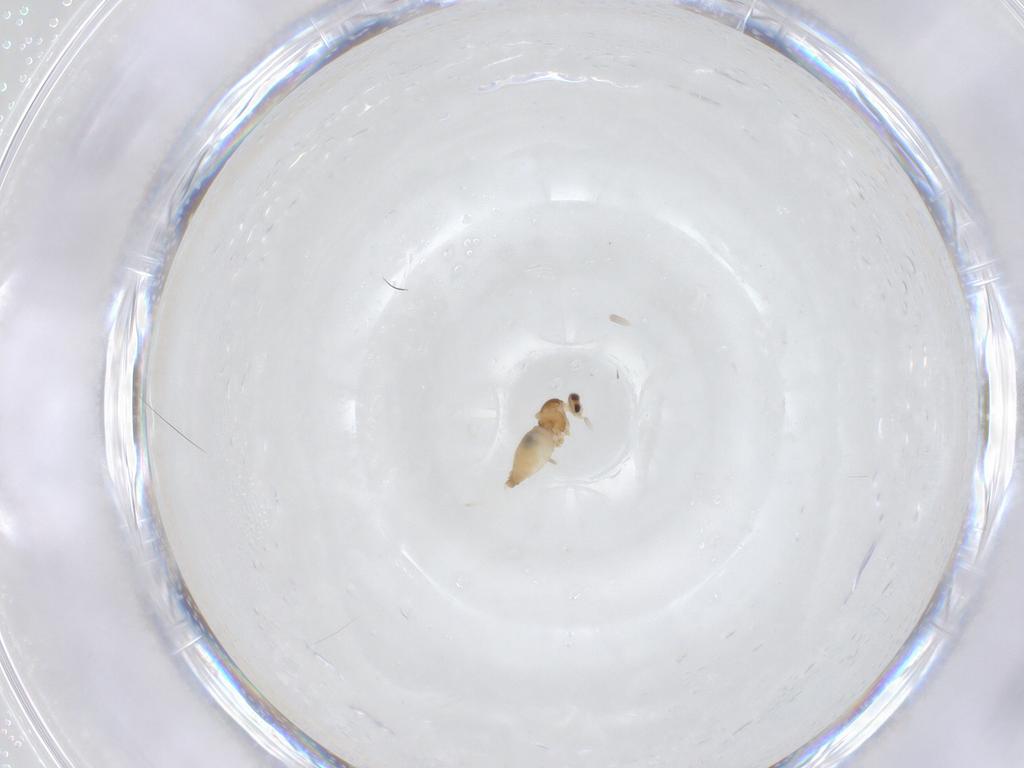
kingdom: Animalia
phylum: Arthropoda
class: Insecta
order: Diptera
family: Cecidomyiidae
